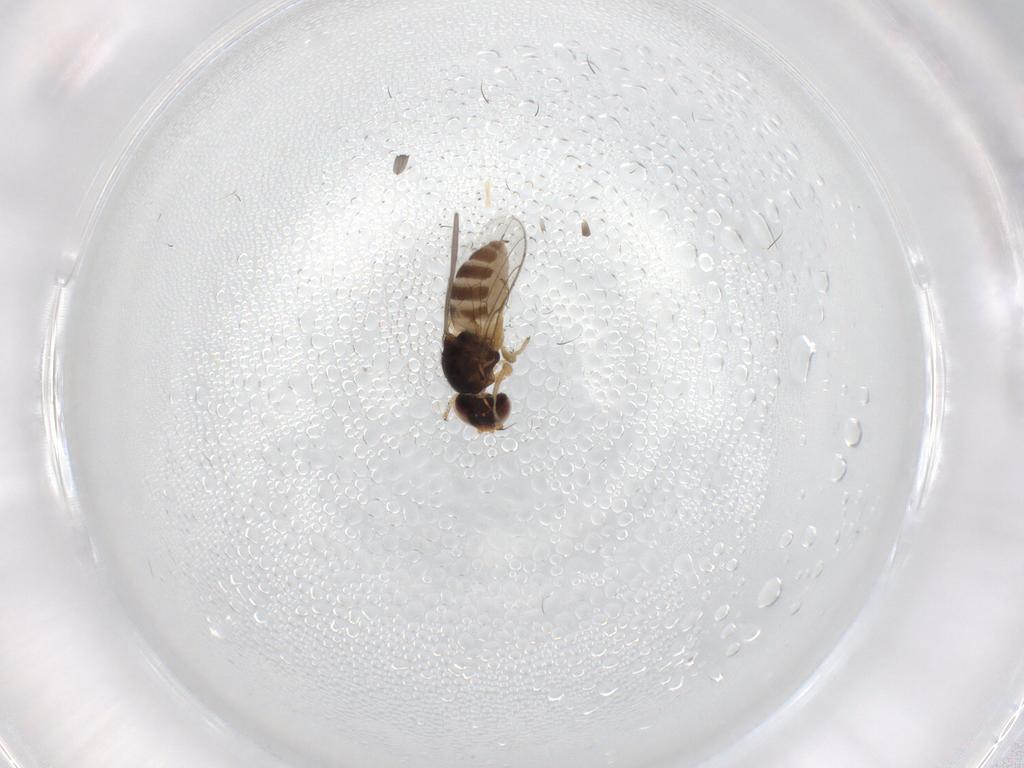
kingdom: Animalia
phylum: Arthropoda
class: Insecta
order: Diptera
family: Chloropidae
